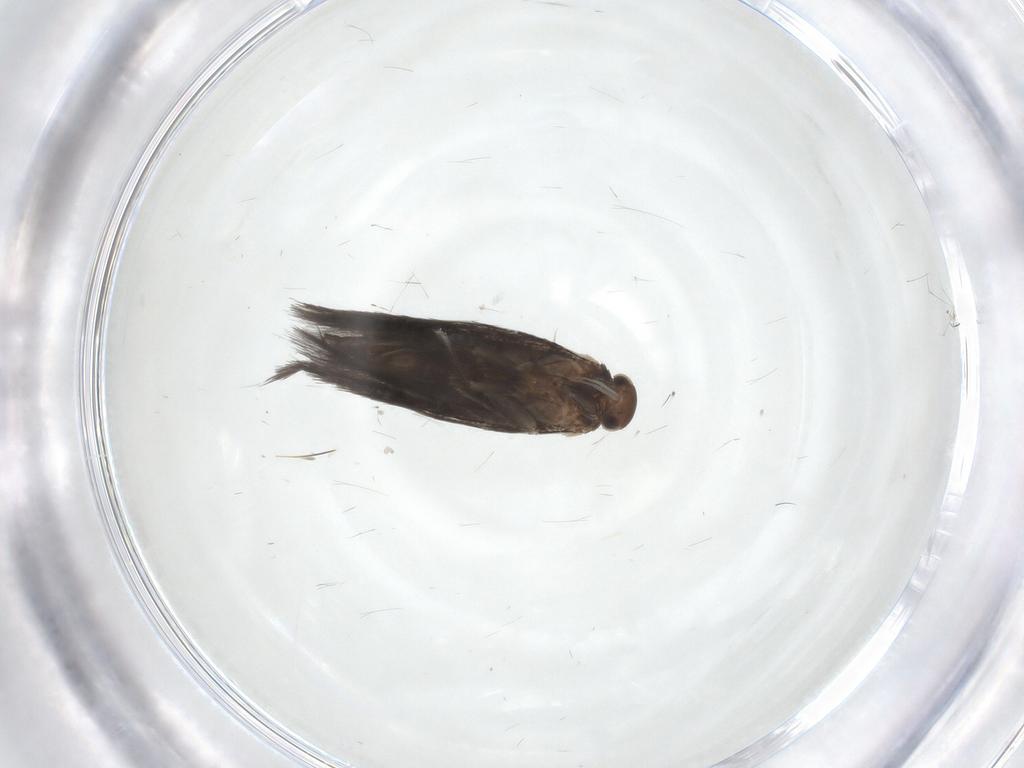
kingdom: Animalia
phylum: Arthropoda
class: Insecta
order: Lepidoptera
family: Elachistidae
